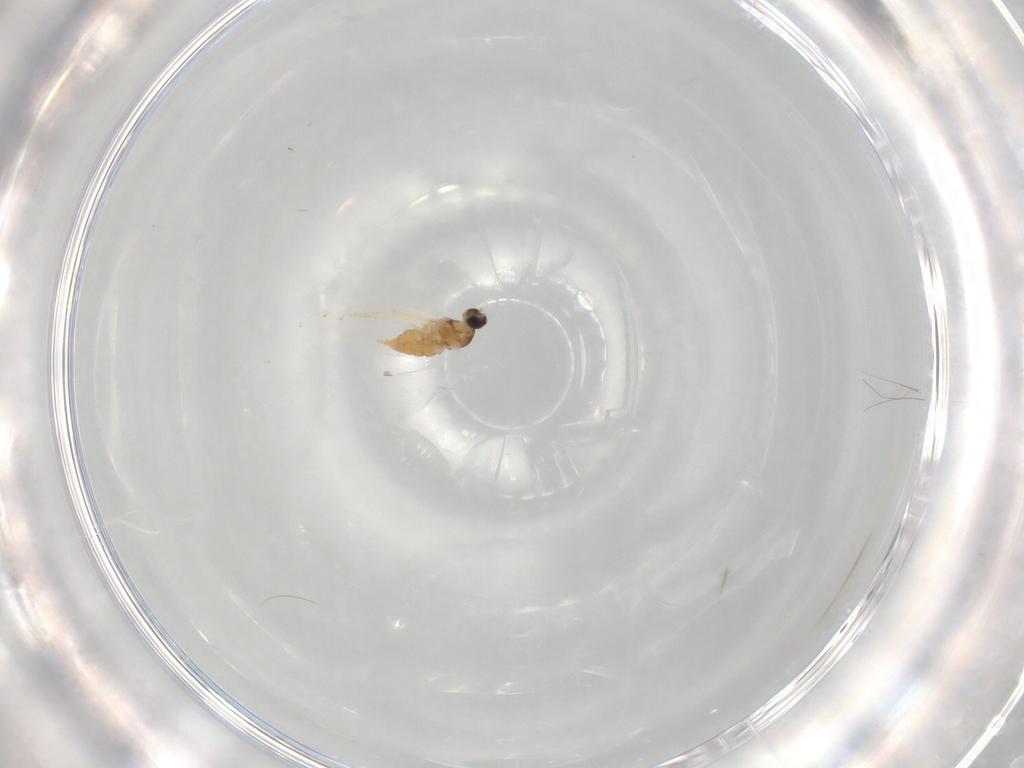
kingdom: Animalia
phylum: Arthropoda
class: Insecta
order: Diptera
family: Cecidomyiidae
